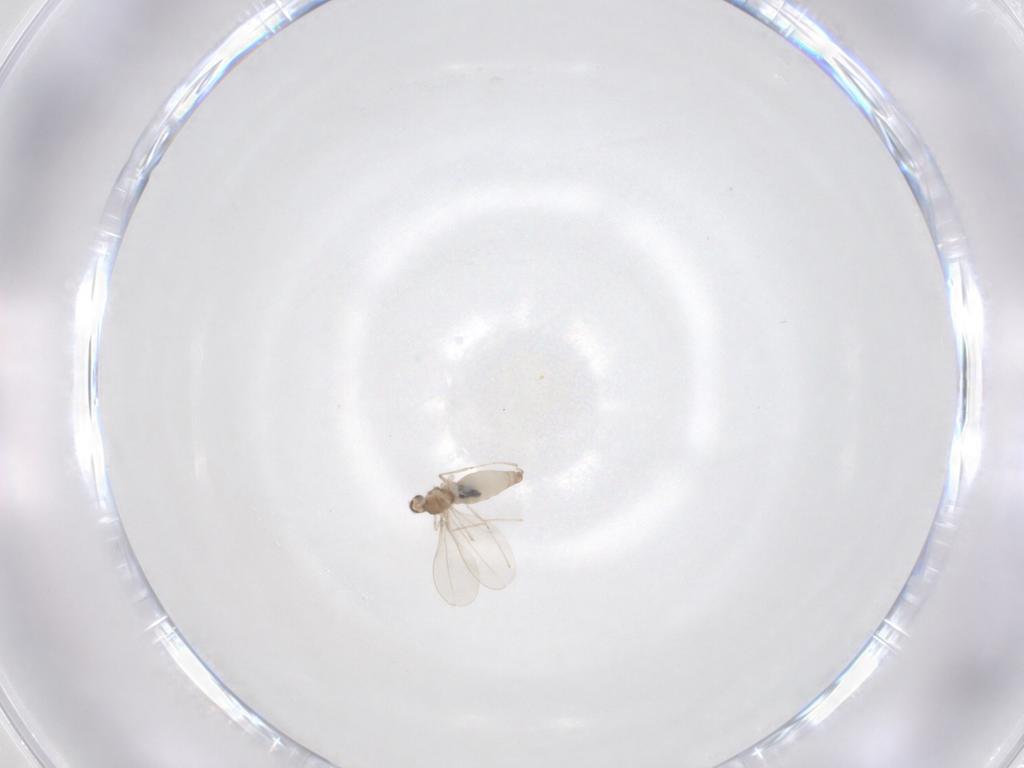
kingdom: Animalia
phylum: Arthropoda
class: Insecta
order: Diptera
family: Cecidomyiidae
